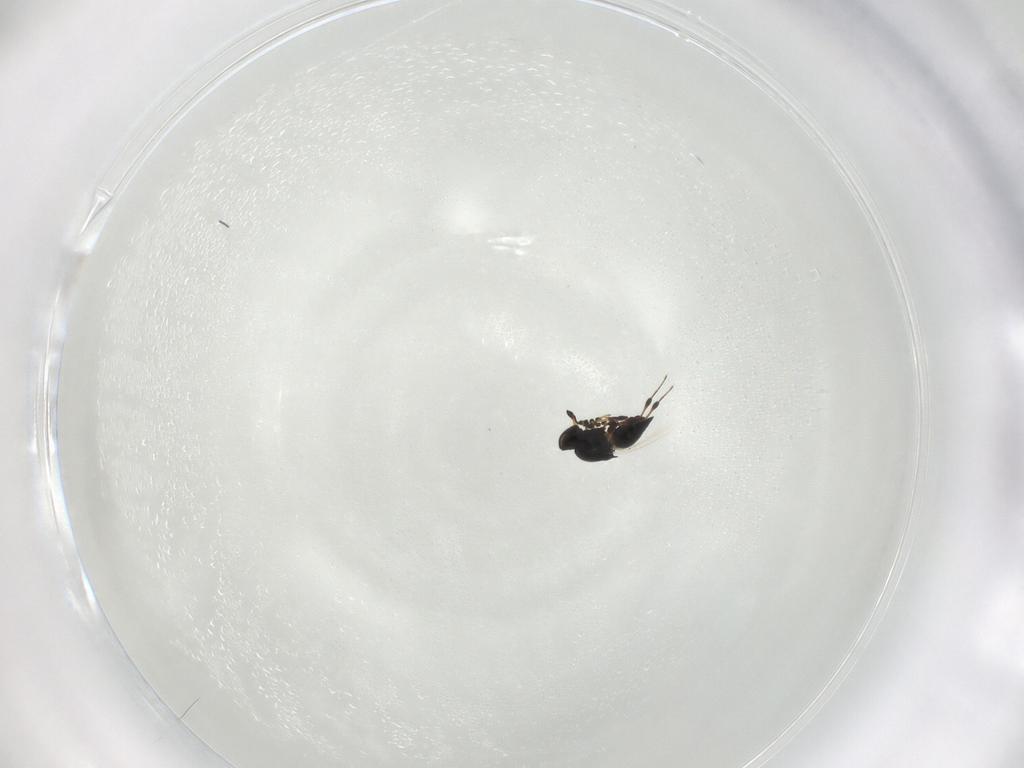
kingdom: Animalia
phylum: Arthropoda
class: Insecta
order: Hymenoptera
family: Platygastridae
